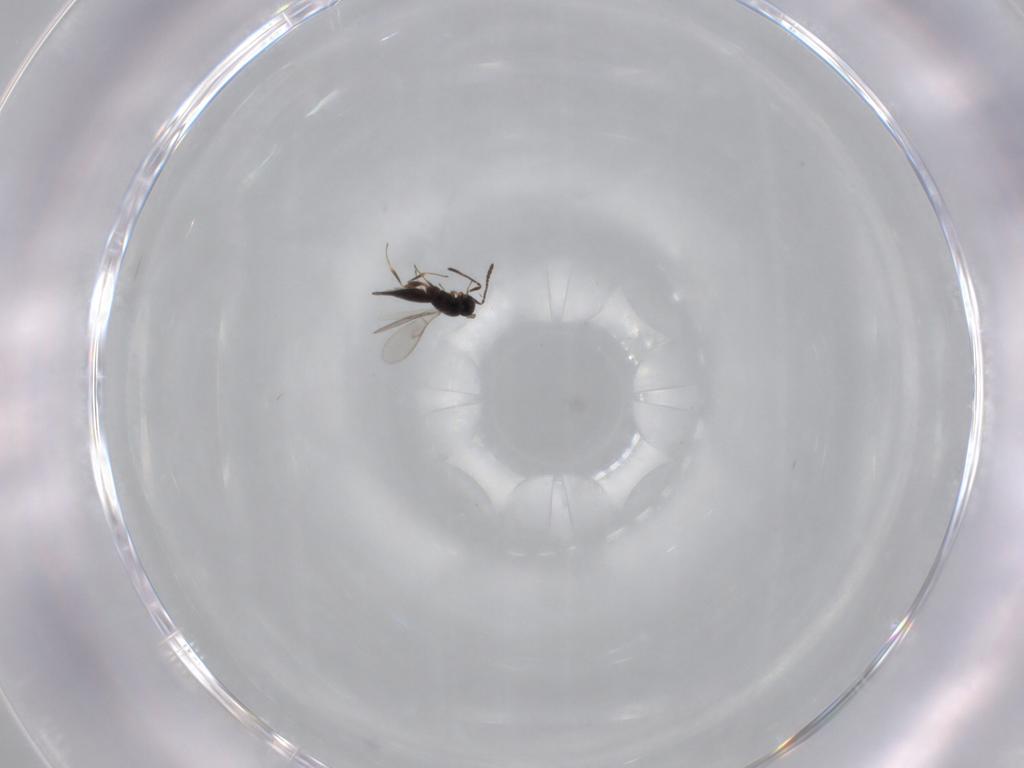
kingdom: Animalia
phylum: Arthropoda
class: Insecta
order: Hymenoptera
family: Scelionidae
